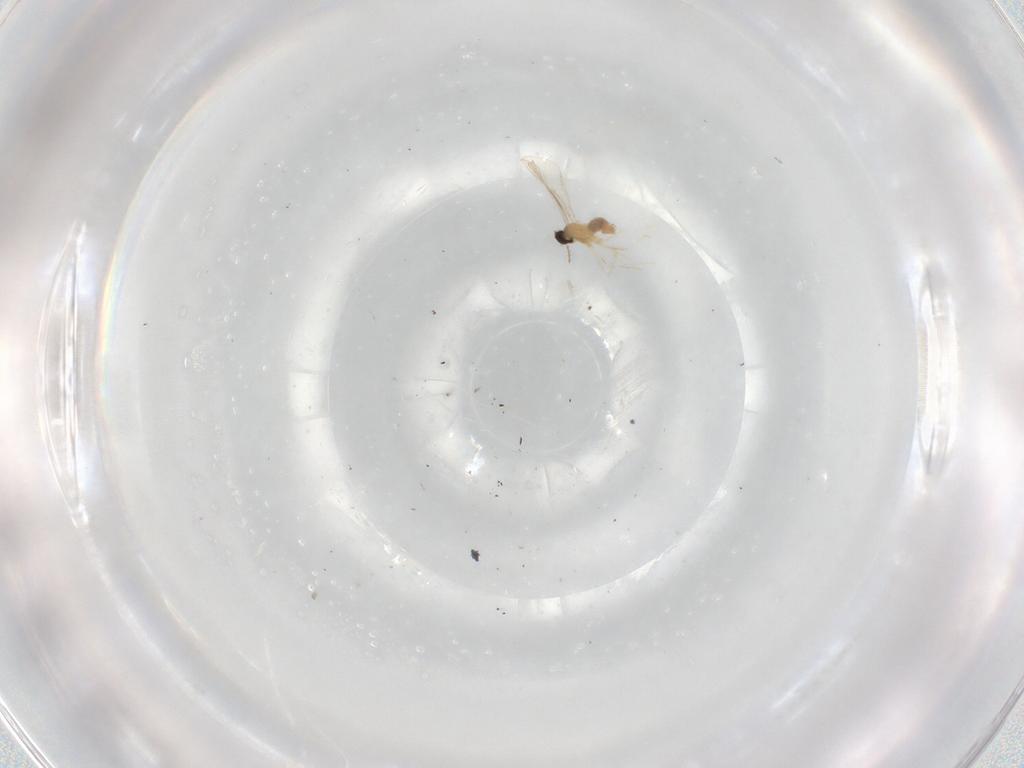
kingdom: Animalia
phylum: Arthropoda
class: Insecta
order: Diptera
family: Cecidomyiidae
